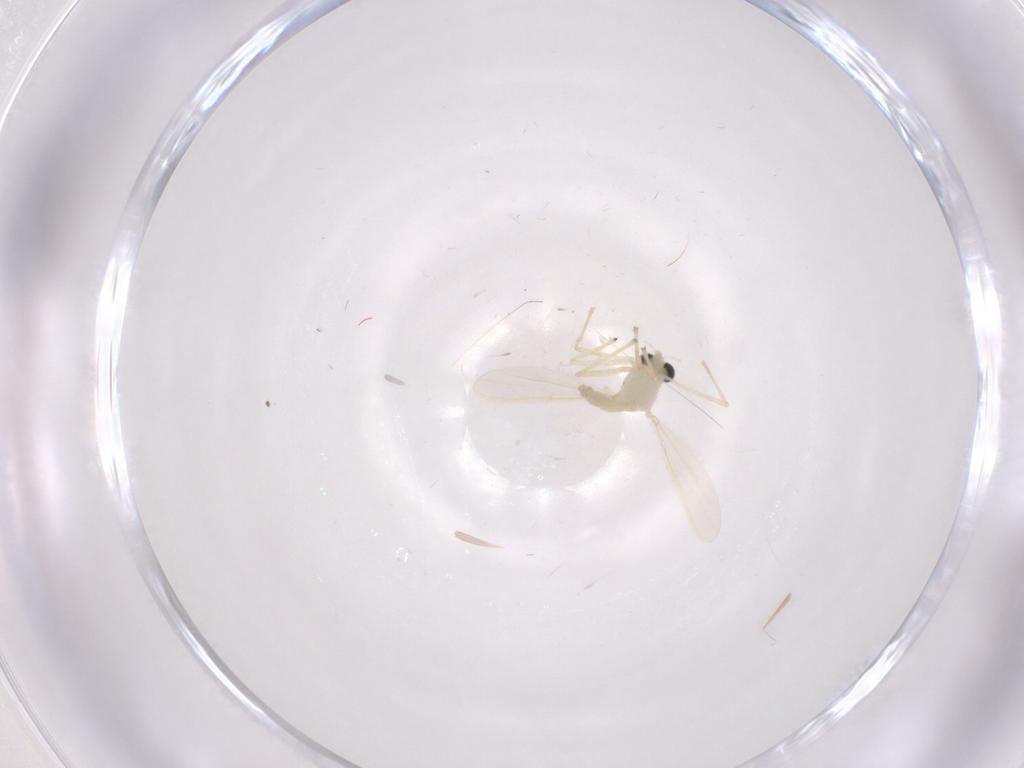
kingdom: Animalia
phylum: Arthropoda
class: Insecta
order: Diptera
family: Chironomidae
